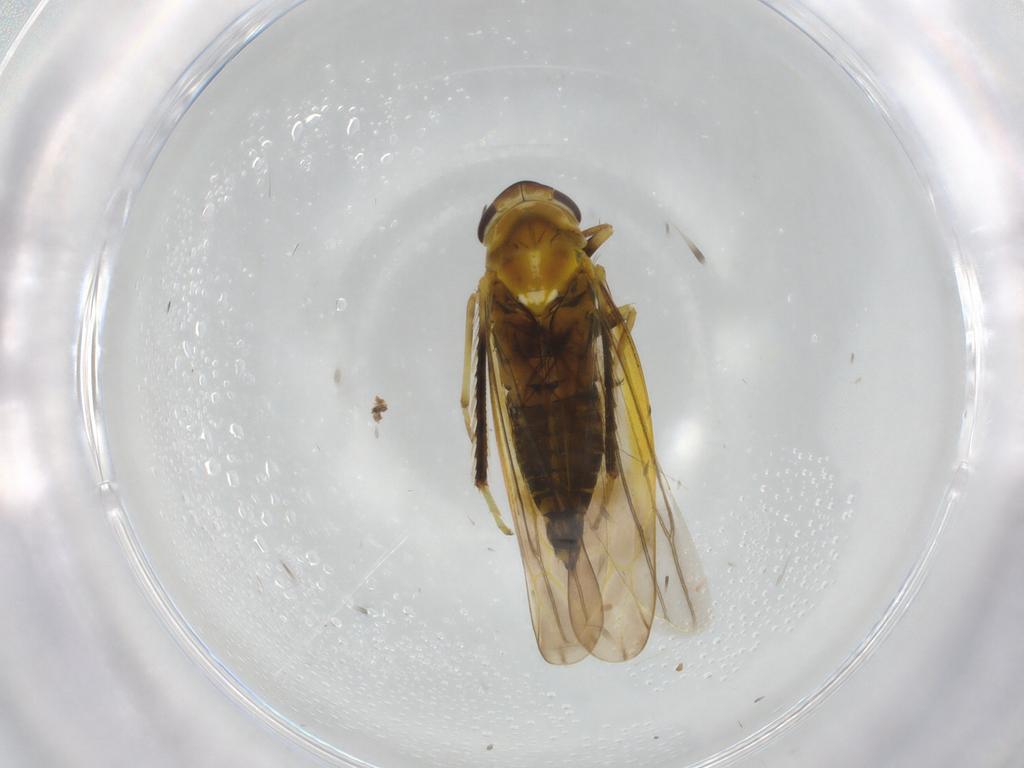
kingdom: Animalia
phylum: Arthropoda
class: Insecta
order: Hemiptera
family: Cicadellidae
